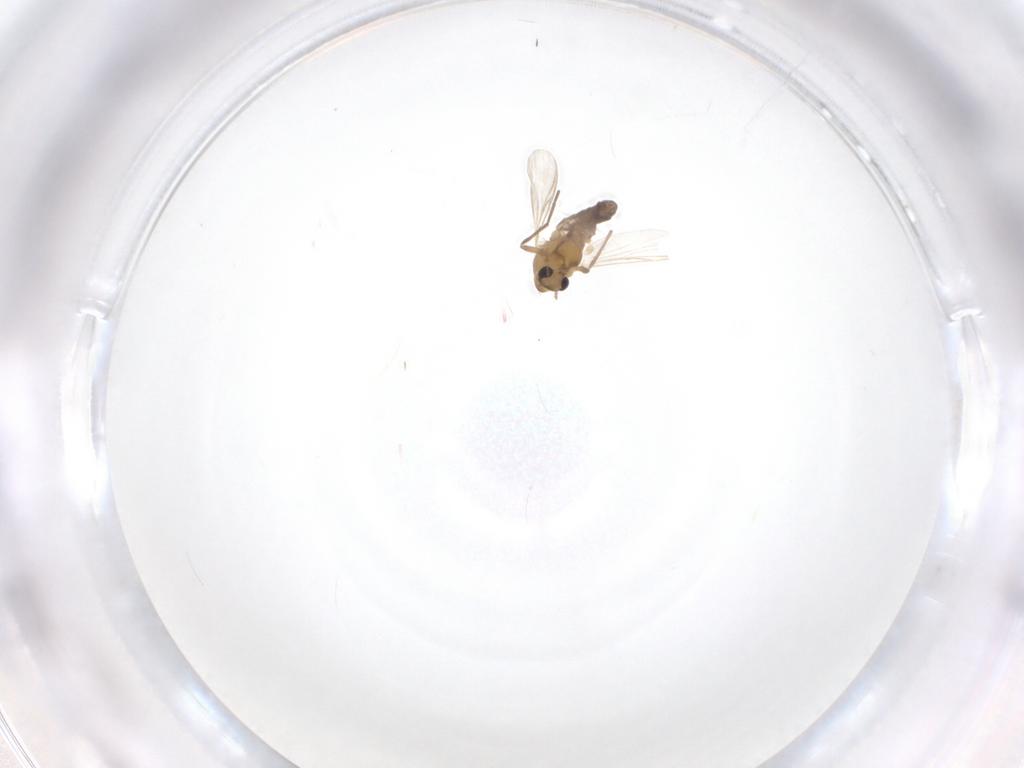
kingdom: Animalia
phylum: Arthropoda
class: Insecta
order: Diptera
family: Chironomidae
